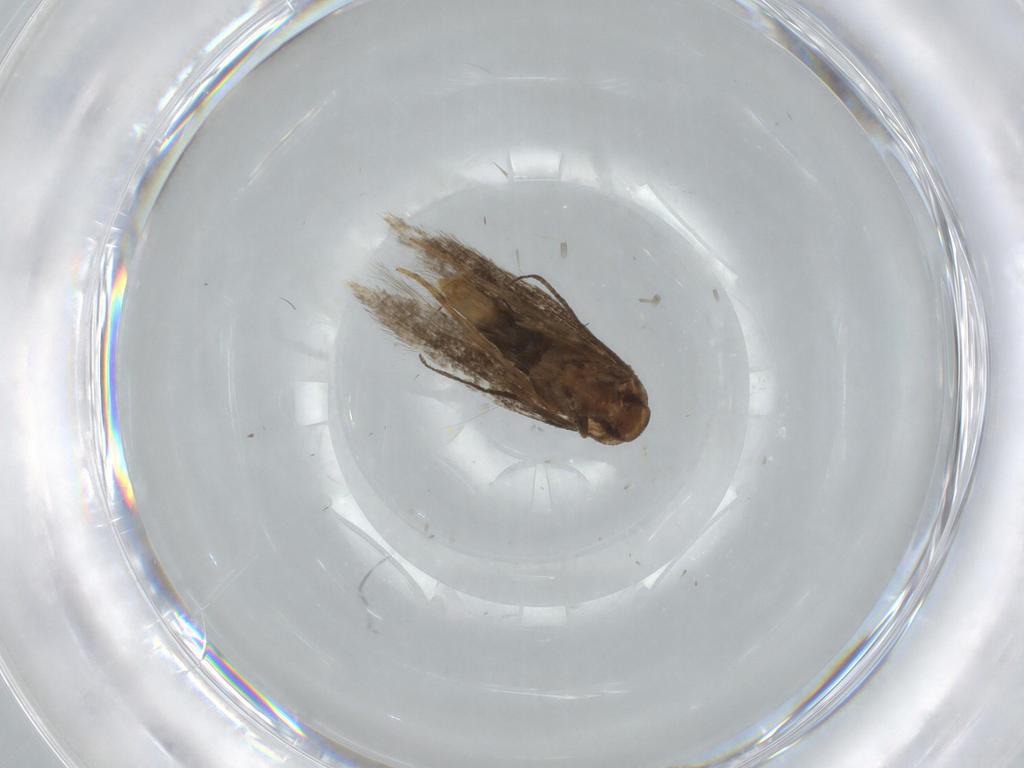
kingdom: Animalia
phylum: Arthropoda
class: Insecta
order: Lepidoptera
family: Elachistidae
